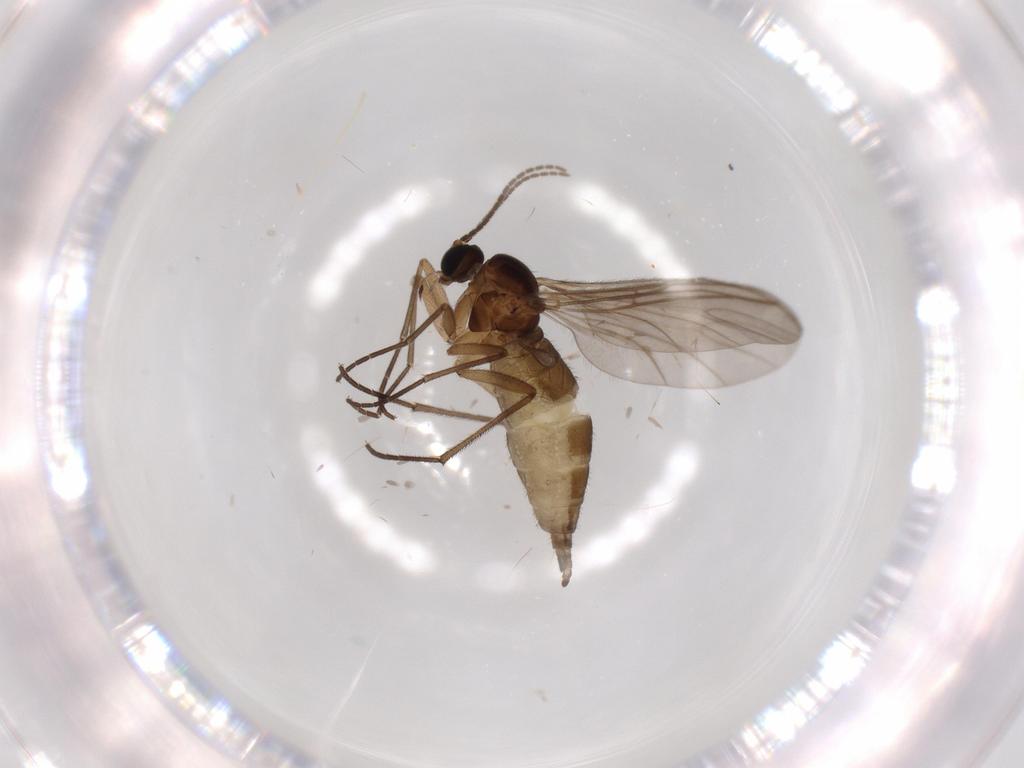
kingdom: Animalia
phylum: Arthropoda
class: Insecta
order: Diptera
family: Sciaridae
